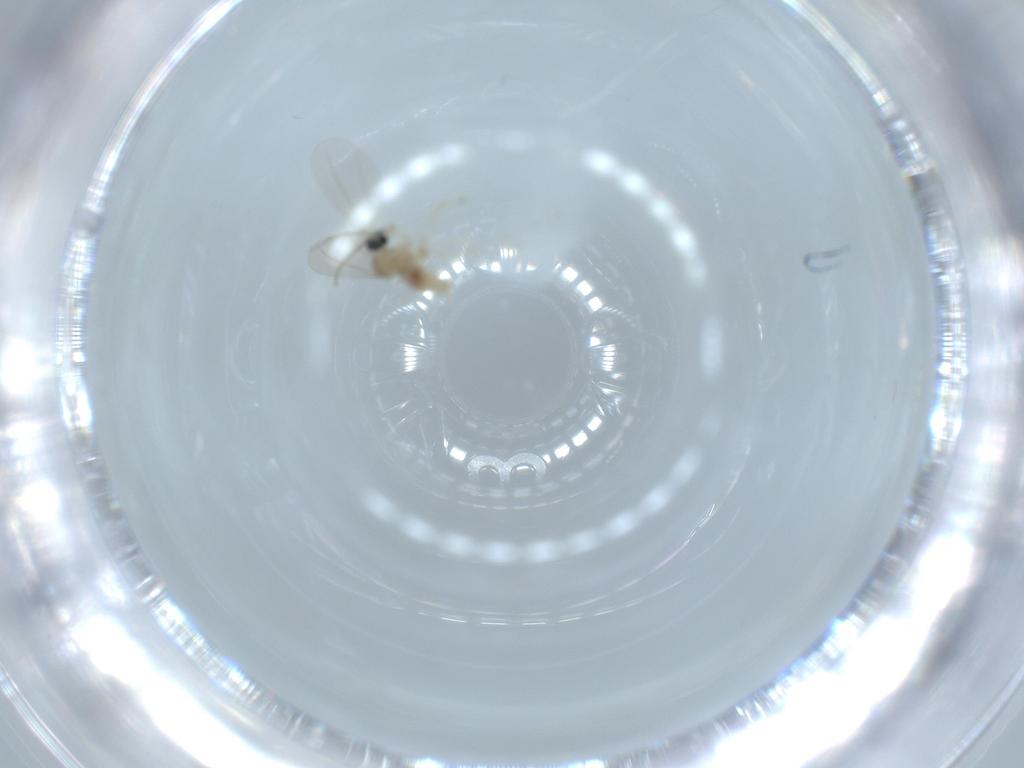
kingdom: Animalia
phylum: Arthropoda
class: Insecta
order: Diptera
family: Cecidomyiidae
